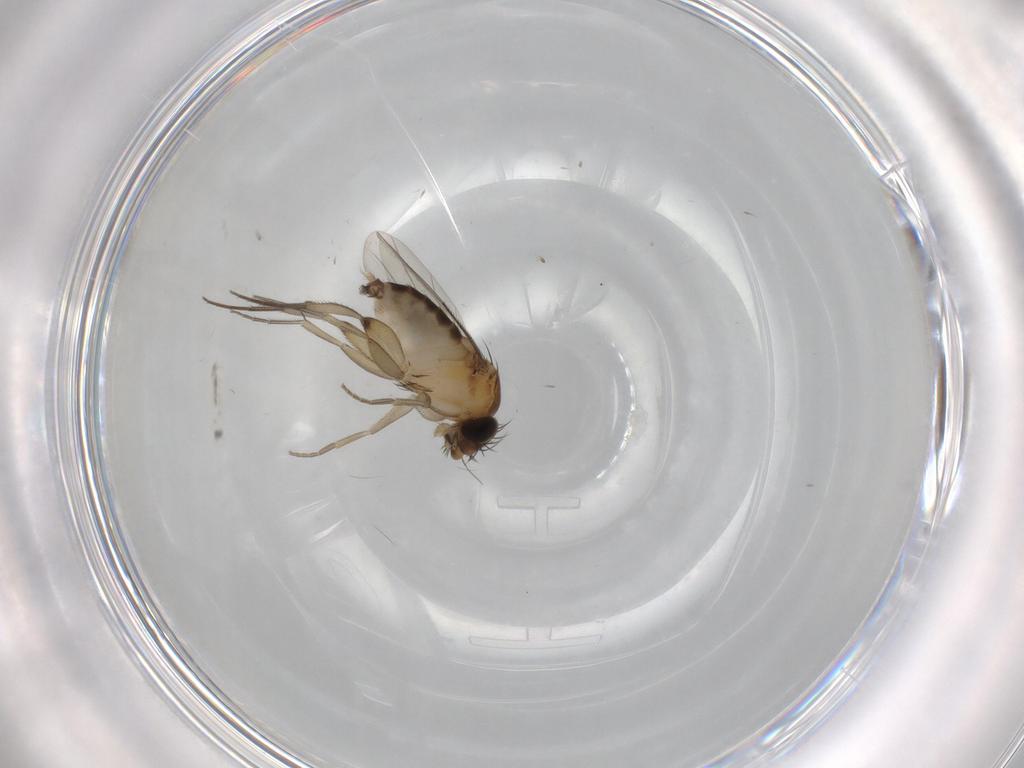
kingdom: Animalia
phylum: Arthropoda
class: Insecta
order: Diptera
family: Phoridae
